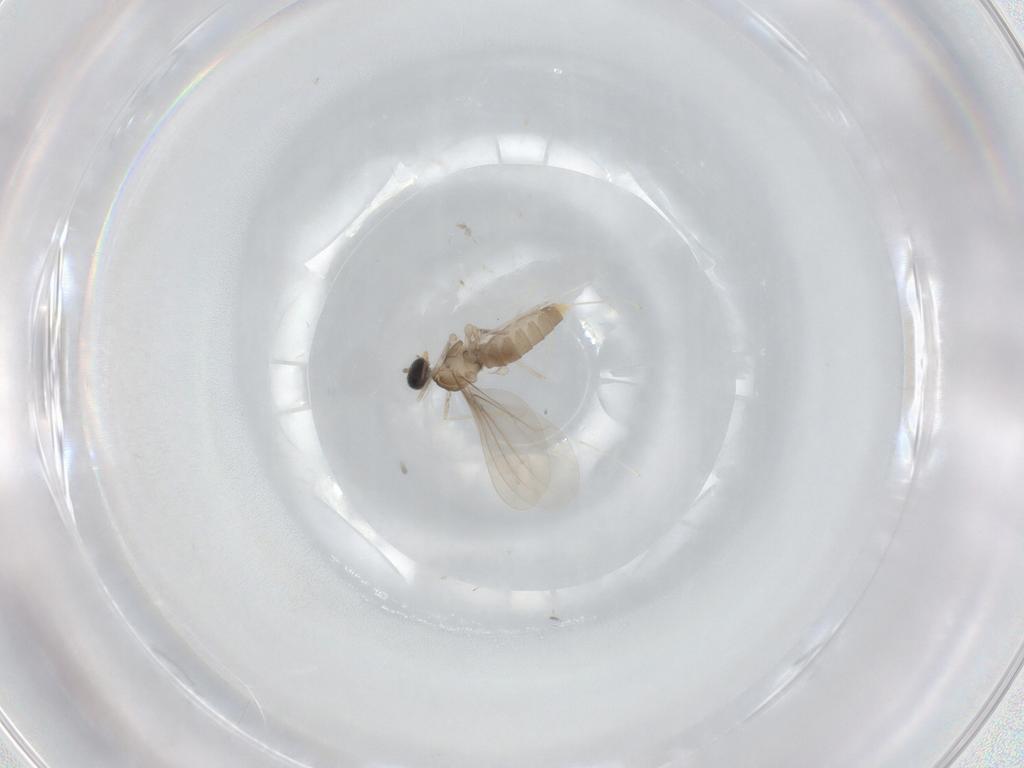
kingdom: Animalia
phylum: Arthropoda
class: Insecta
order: Diptera
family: Cecidomyiidae
